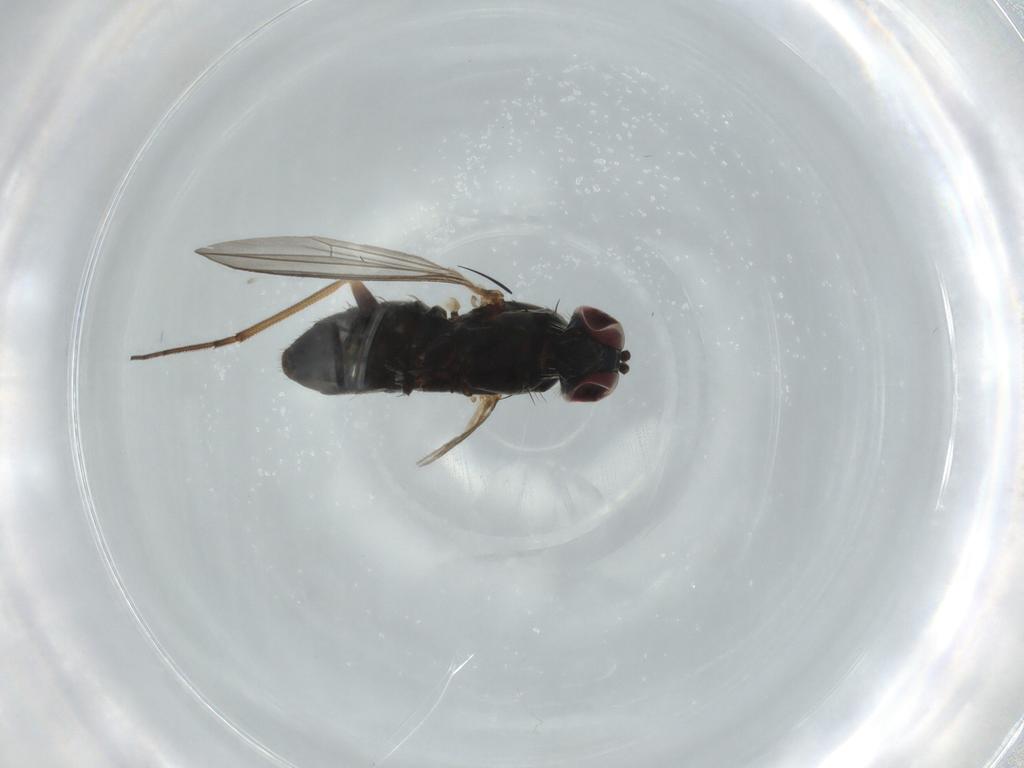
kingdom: Animalia
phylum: Arthropoda
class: Insecta
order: Diptera
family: Dolichopodidae
